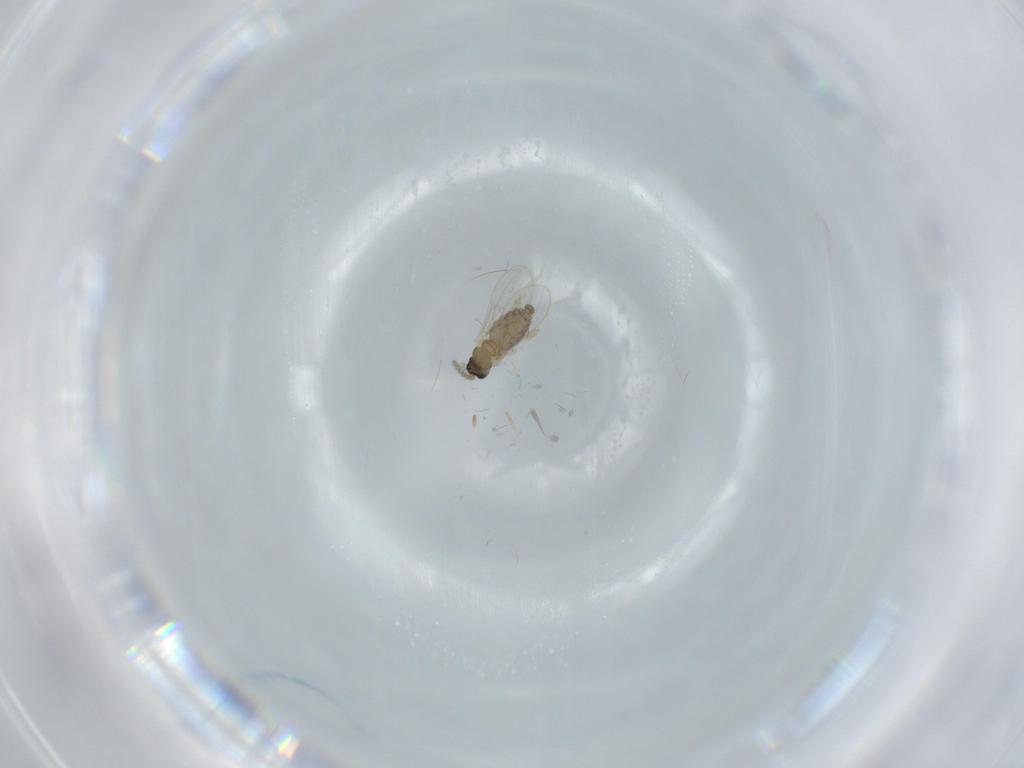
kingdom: Animalia
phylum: Arthropoda
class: Insecta
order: Diptera
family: Cecidomyiidae
